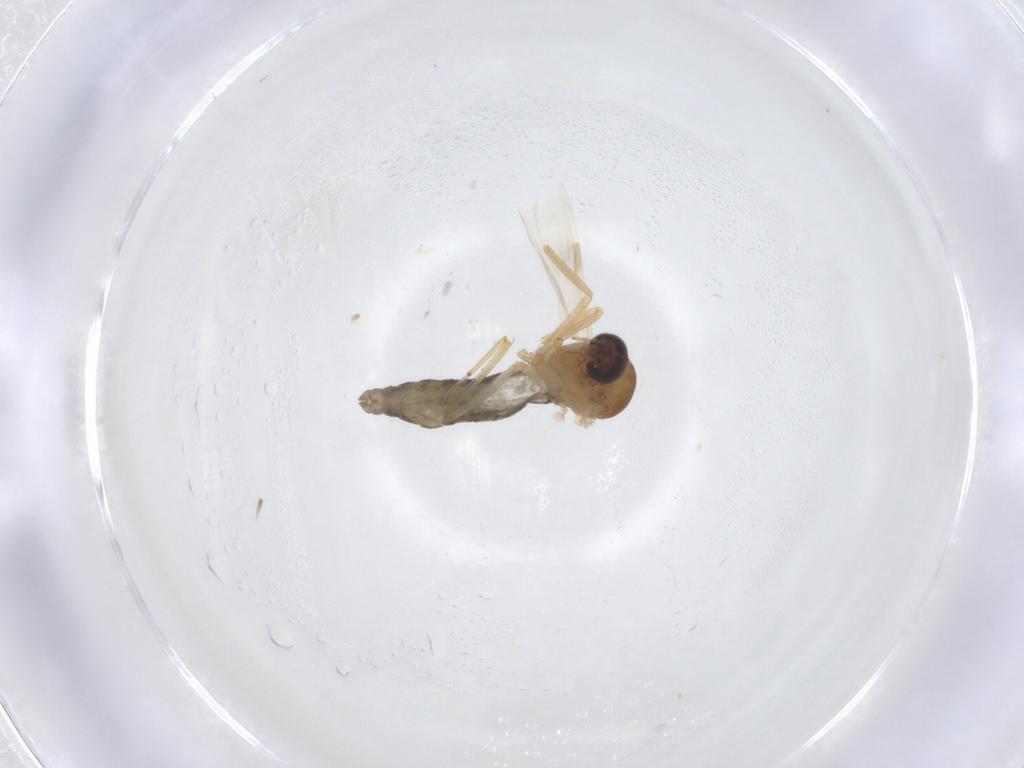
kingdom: Animalia
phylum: Arthropoda
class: Insecta
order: Diptera
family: Ceratopogonidae
